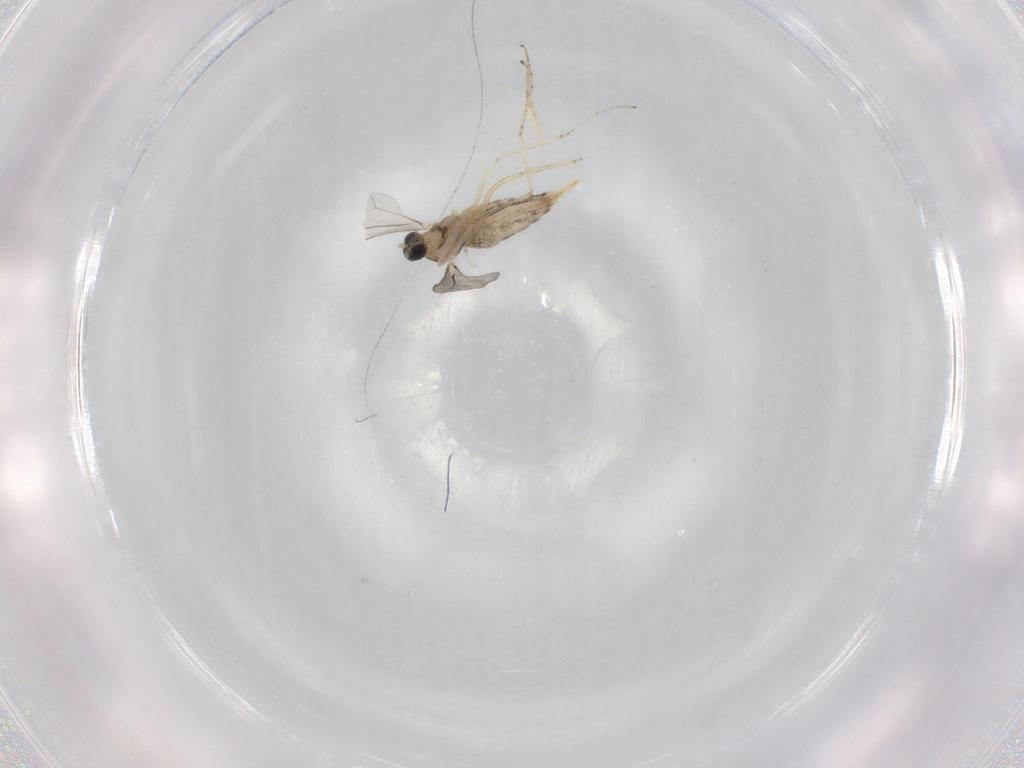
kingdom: Animalia
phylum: Arthropoda
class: Insecta
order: Diptera
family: Cecidomyiidae
